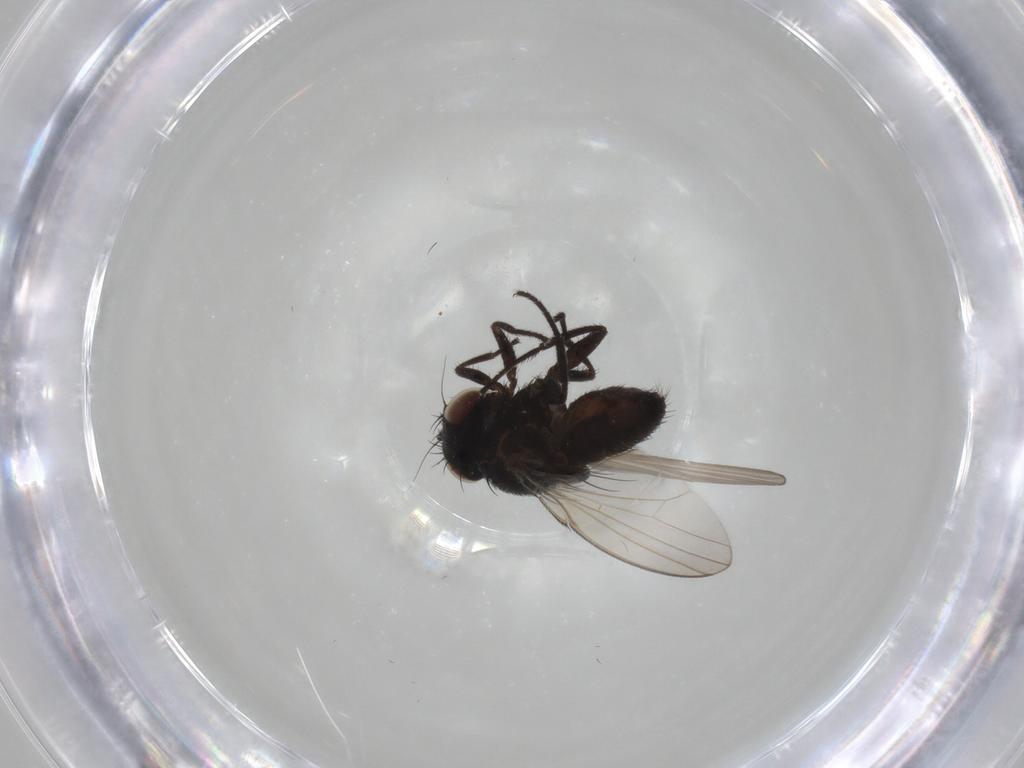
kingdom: Animalia
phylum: Arthropoda
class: Insecta
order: Diptera
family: Milichiidae
